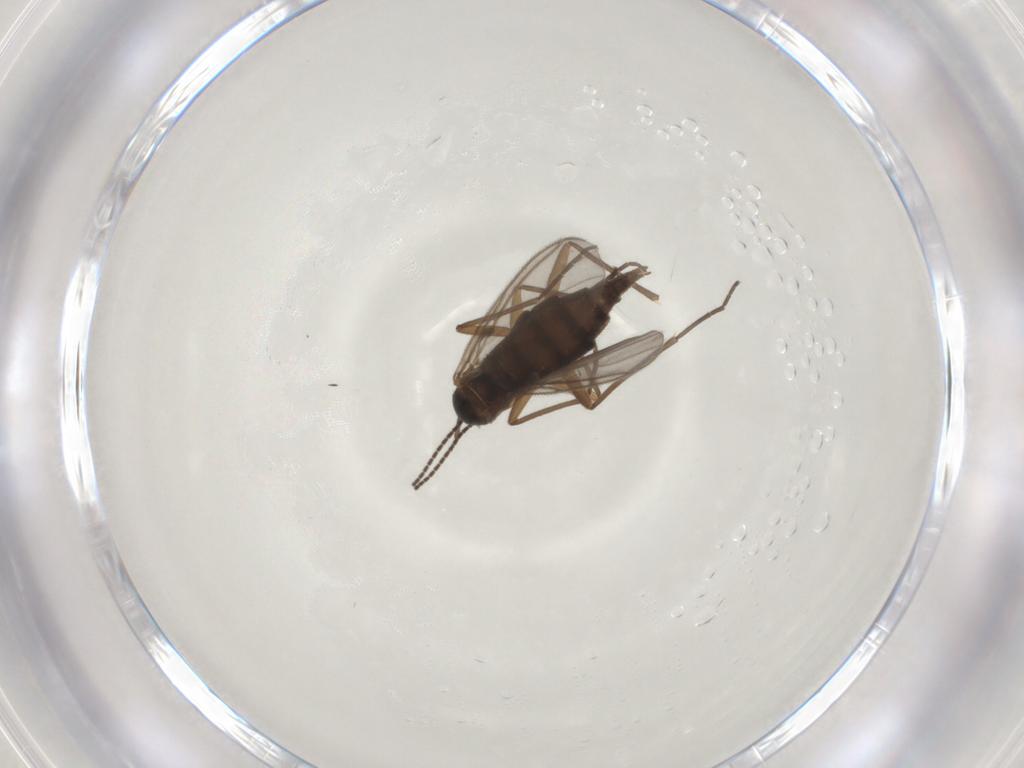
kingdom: Animalia
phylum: Arthropoda
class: Insecta
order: Diptera
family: Sciaridae
